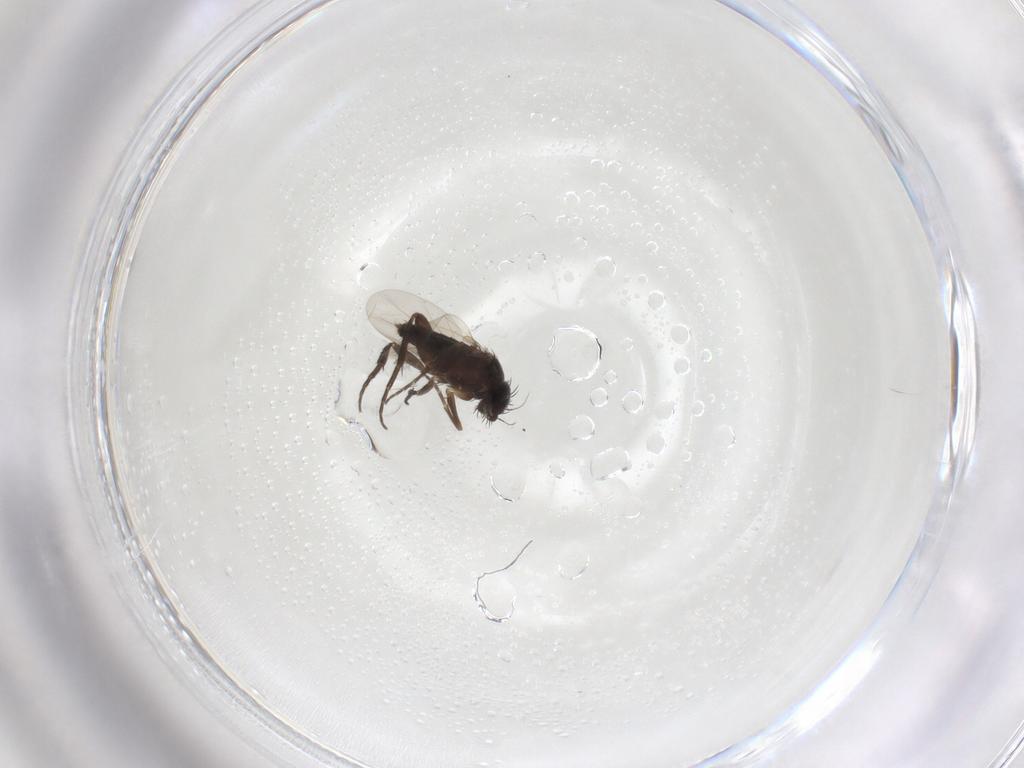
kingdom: Animalia
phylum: Arthropoda
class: Insecta
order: Diptera
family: Phoridae
